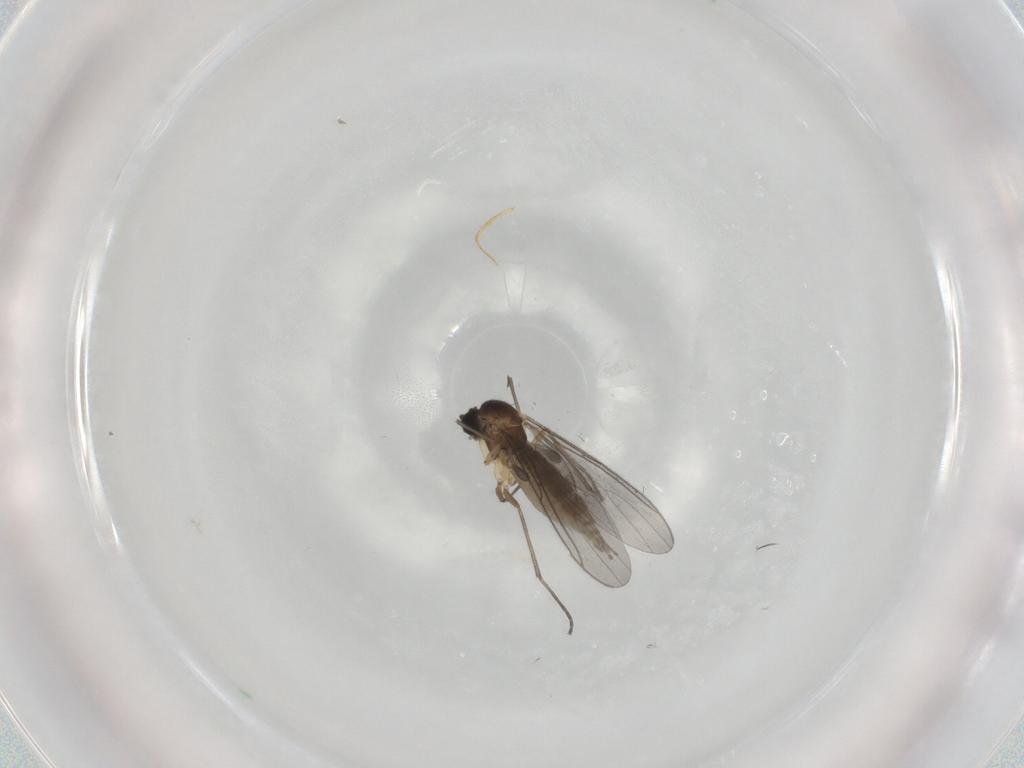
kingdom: Animalia
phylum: Arthropoda
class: Insecta
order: Diptera
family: Sciaridae
